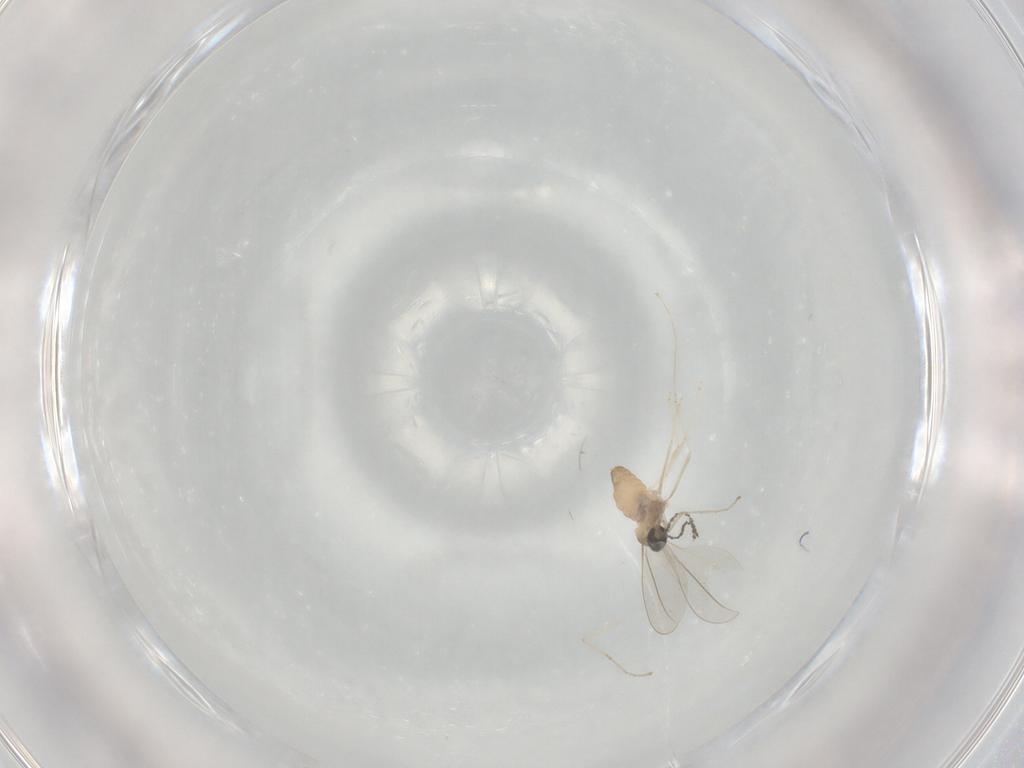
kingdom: Animalia
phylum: Arthropoda
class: Insecta
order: Diptera
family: Cecidomyiidae
